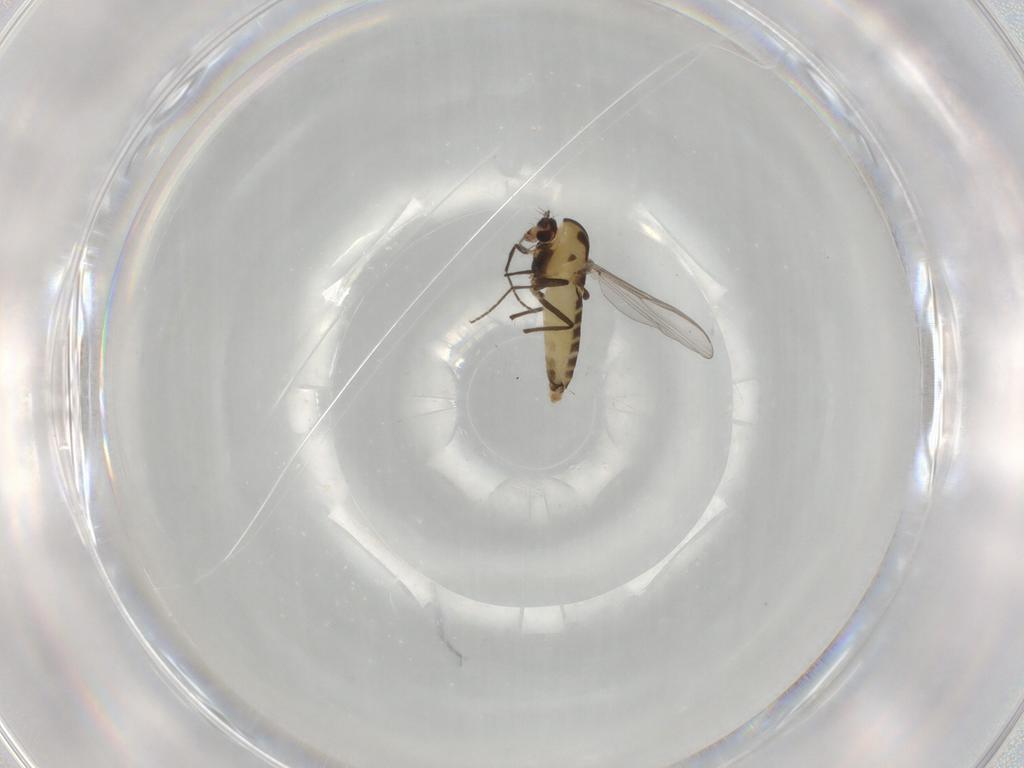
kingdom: Animalia
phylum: Arthropoda
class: Insecta
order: Diptera
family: Chironomidae
